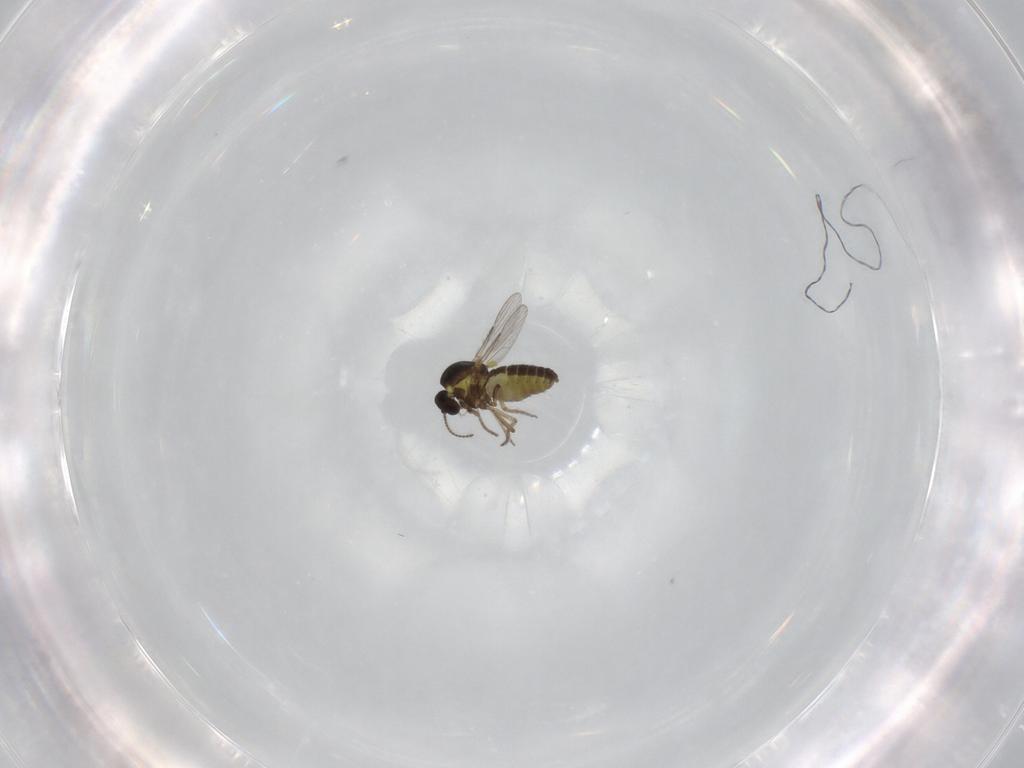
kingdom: Animalia
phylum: Arthropoda
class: Insecta
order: Diptera
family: Ceratopogonidae
